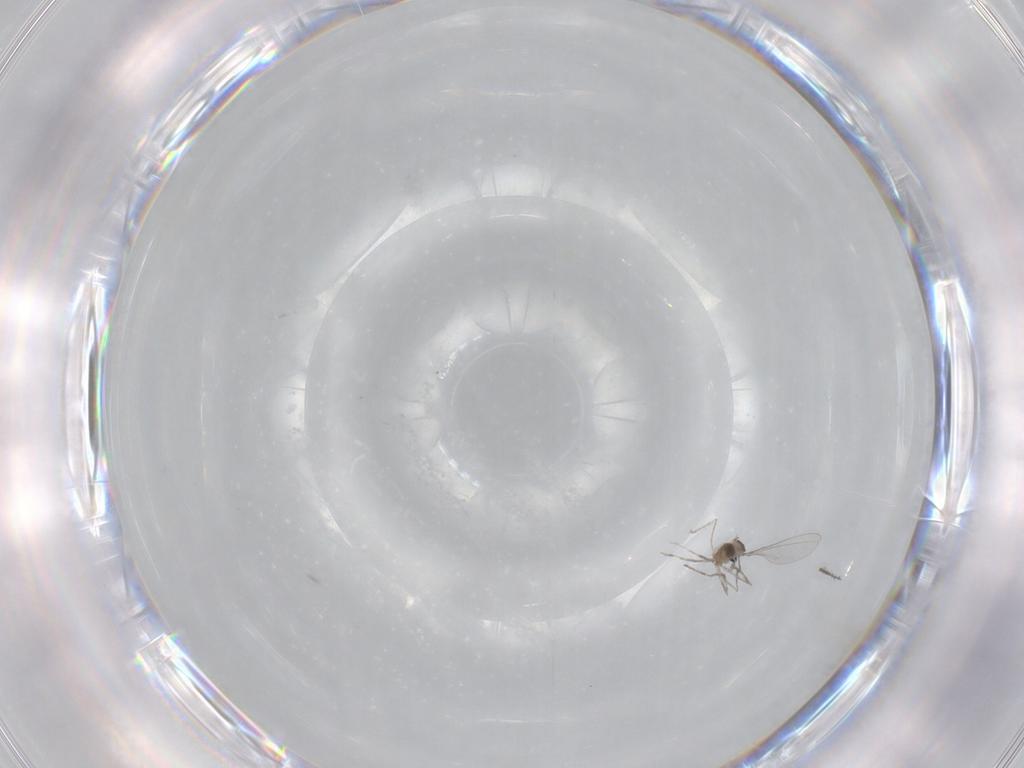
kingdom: Animalia
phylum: Arthropoda
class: Insecta
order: Diptera
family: Cecidomyiidae
